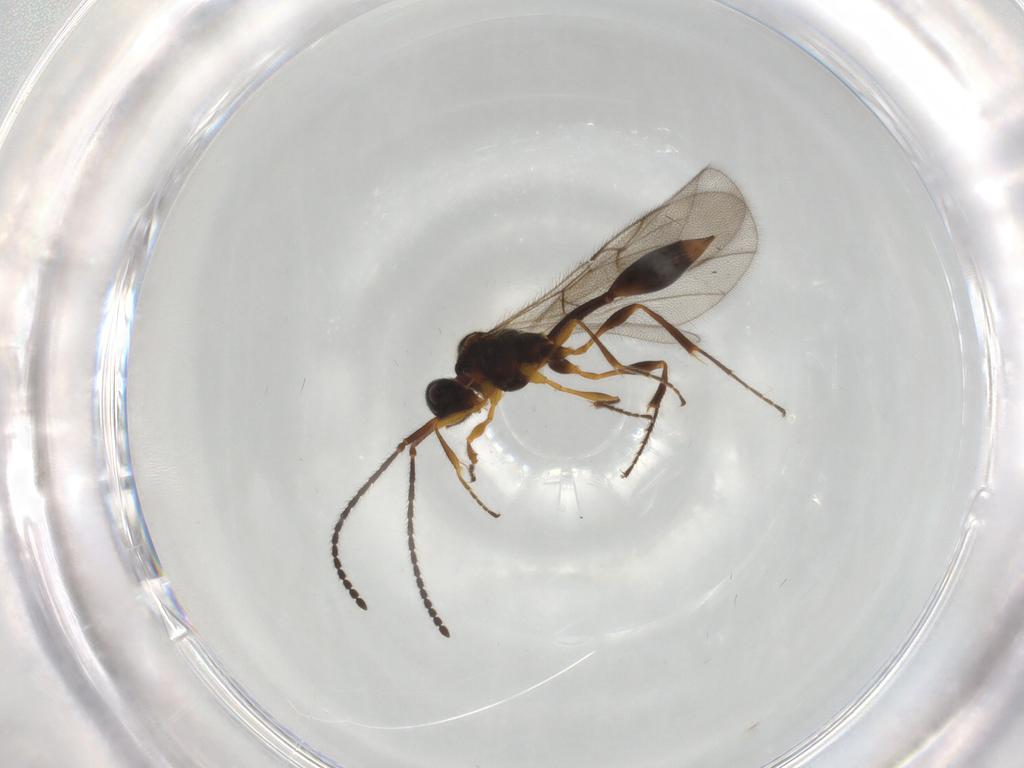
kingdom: Animalia
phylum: Arthropoda
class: Insecta
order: Hymenoptera
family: Diapriidae
